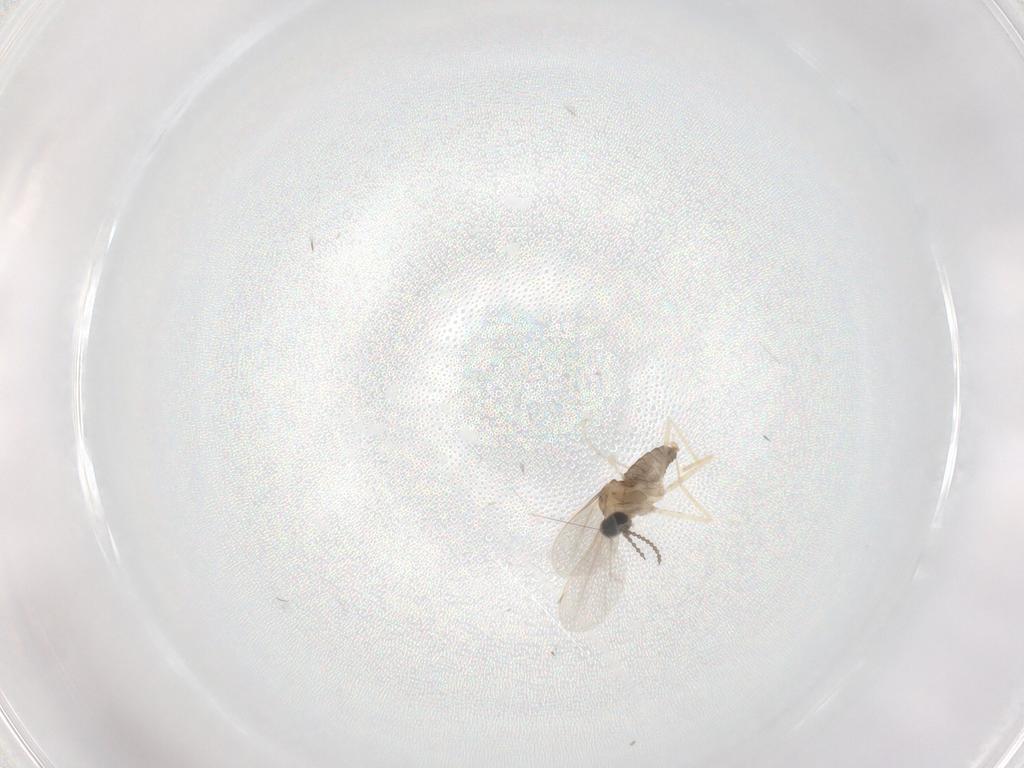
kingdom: Animalia
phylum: Arthropoda
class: Insecta
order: Diptera
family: Cecidomyiidae
